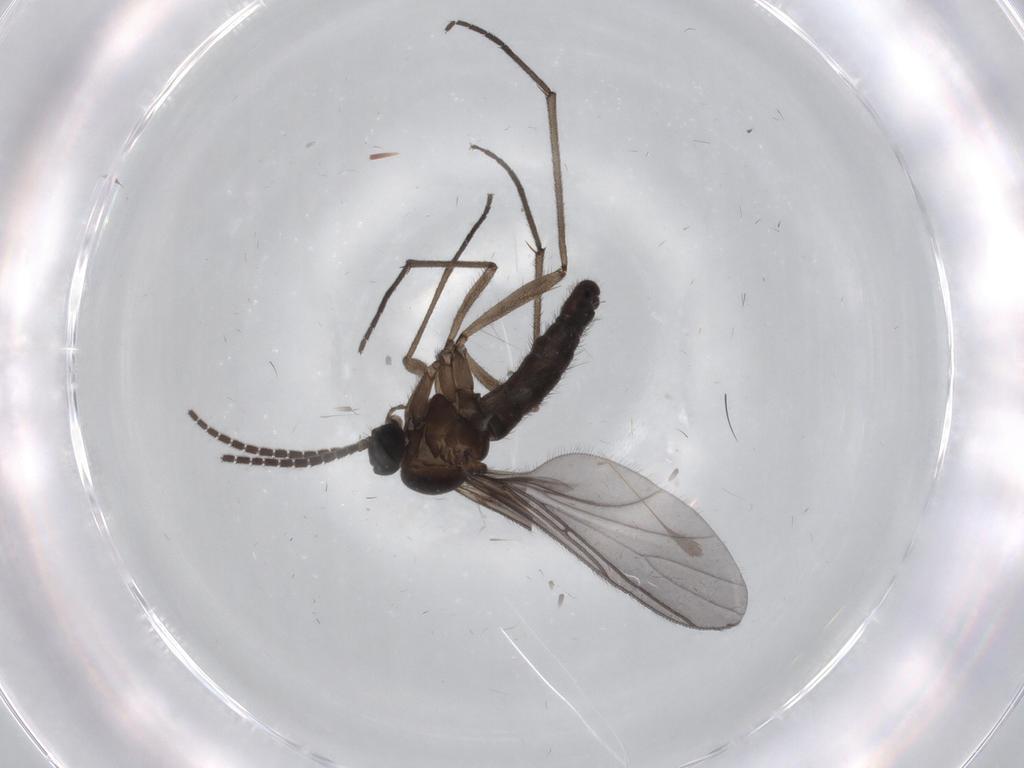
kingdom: Animalia
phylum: Arthropoda
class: Insecta
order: Diptera
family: Sciaridae
